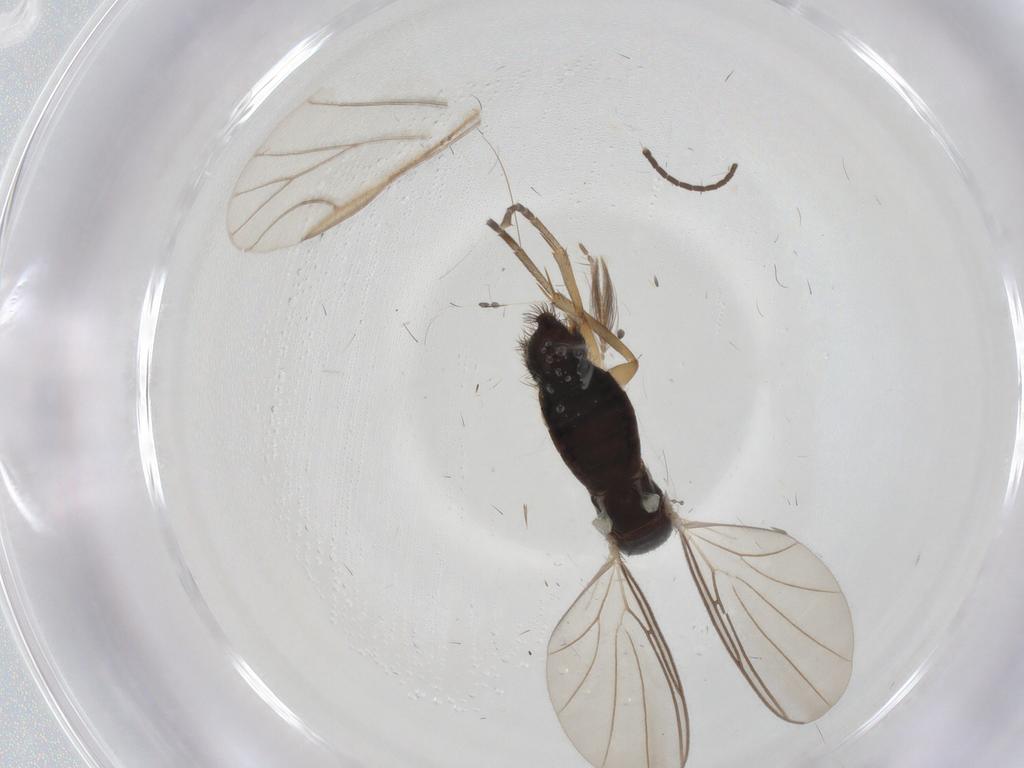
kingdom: Animalia
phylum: Arthropoda
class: Insecta
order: Diptera
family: Mycetophilidae
